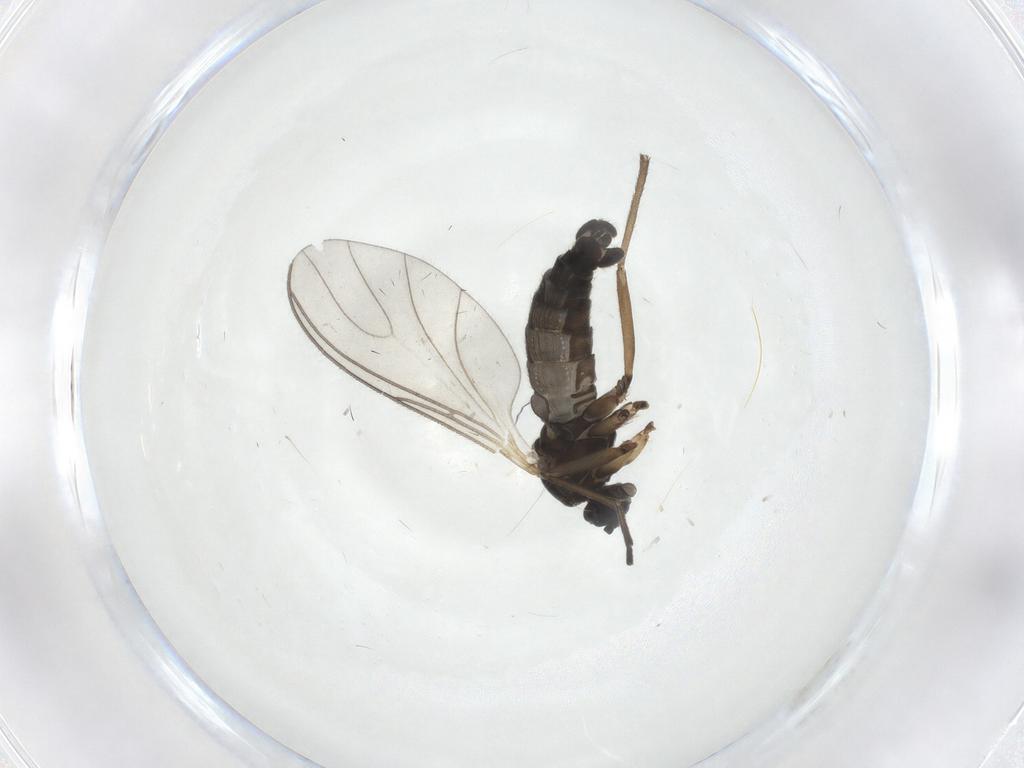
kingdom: Animalia
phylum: Arthropoda
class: Insecta
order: Diptera
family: Sciaridae
